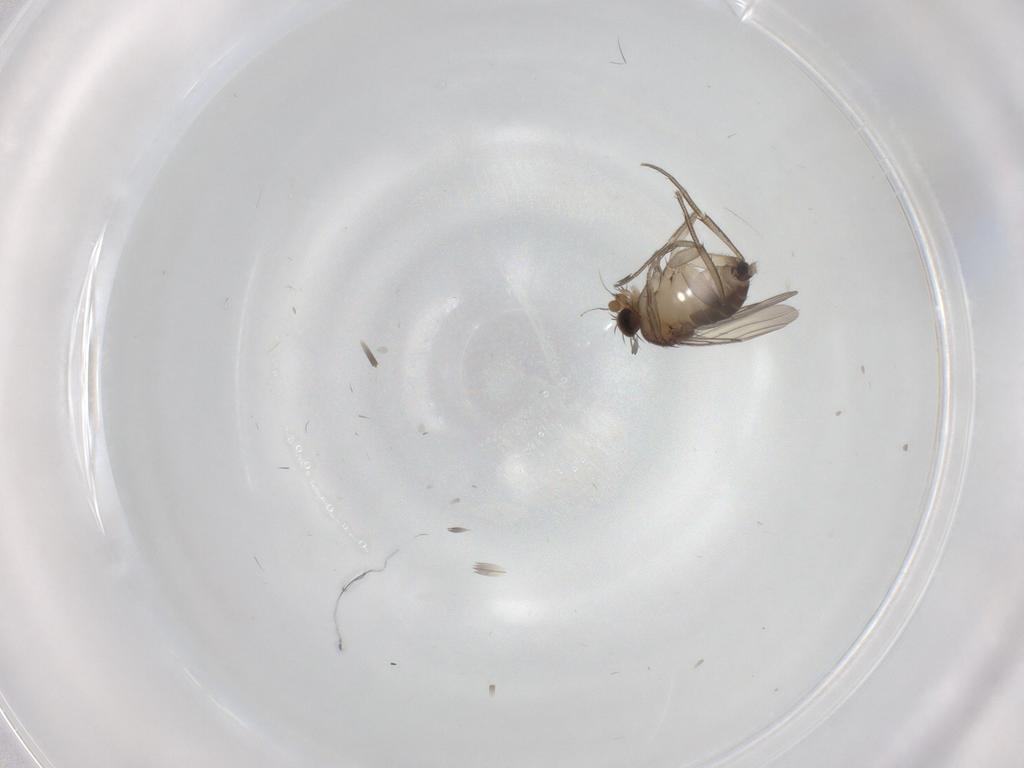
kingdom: Animalia
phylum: Arthropoda
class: Insecta
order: Diptera
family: Phoridae
